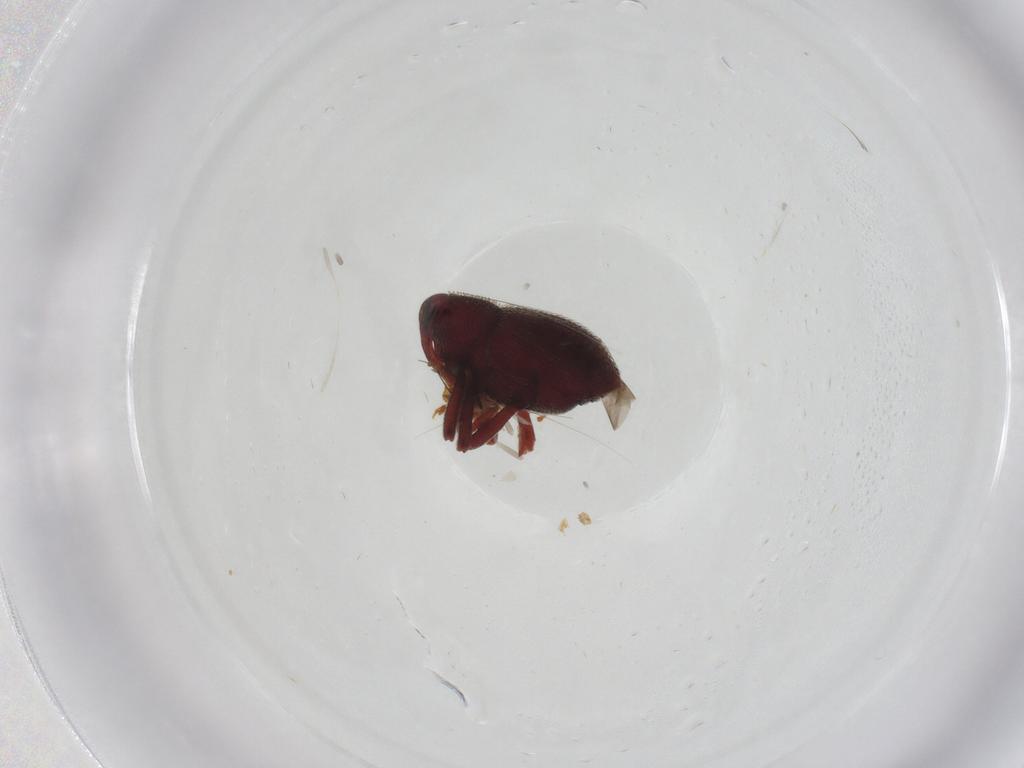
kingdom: Animalia
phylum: Arthropoda
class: Insecta
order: Coleoptera
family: Curculionidae
